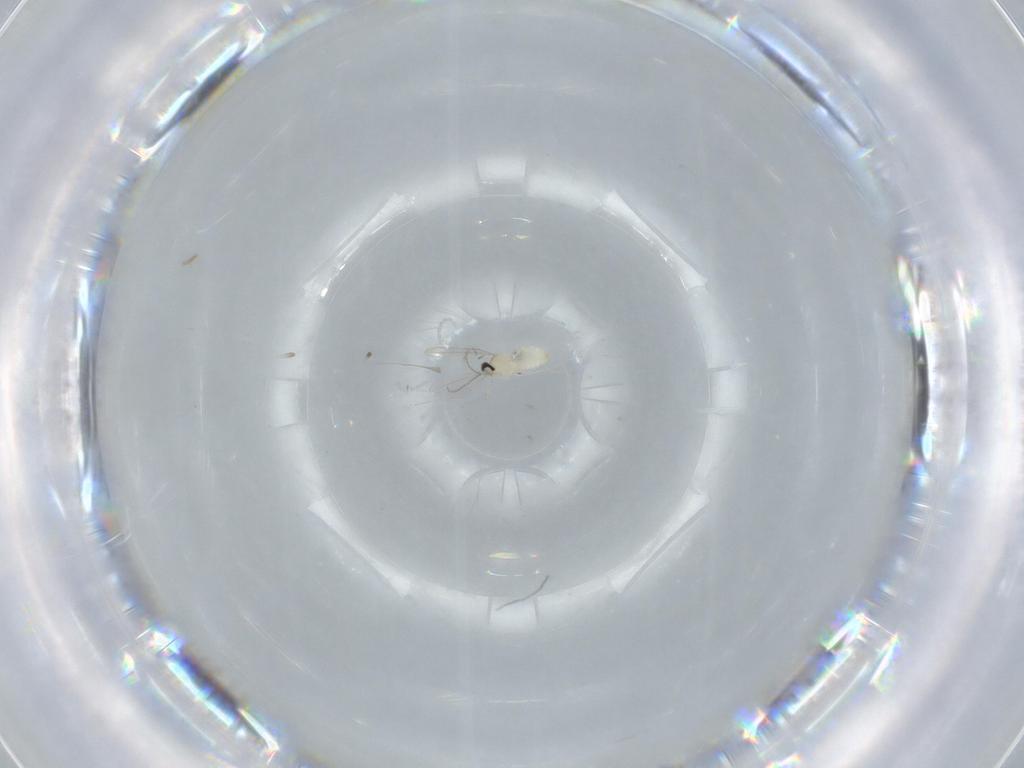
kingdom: Animalia
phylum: Arthropoda
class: Insecta
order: Diptera
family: Cecidomyiidae
